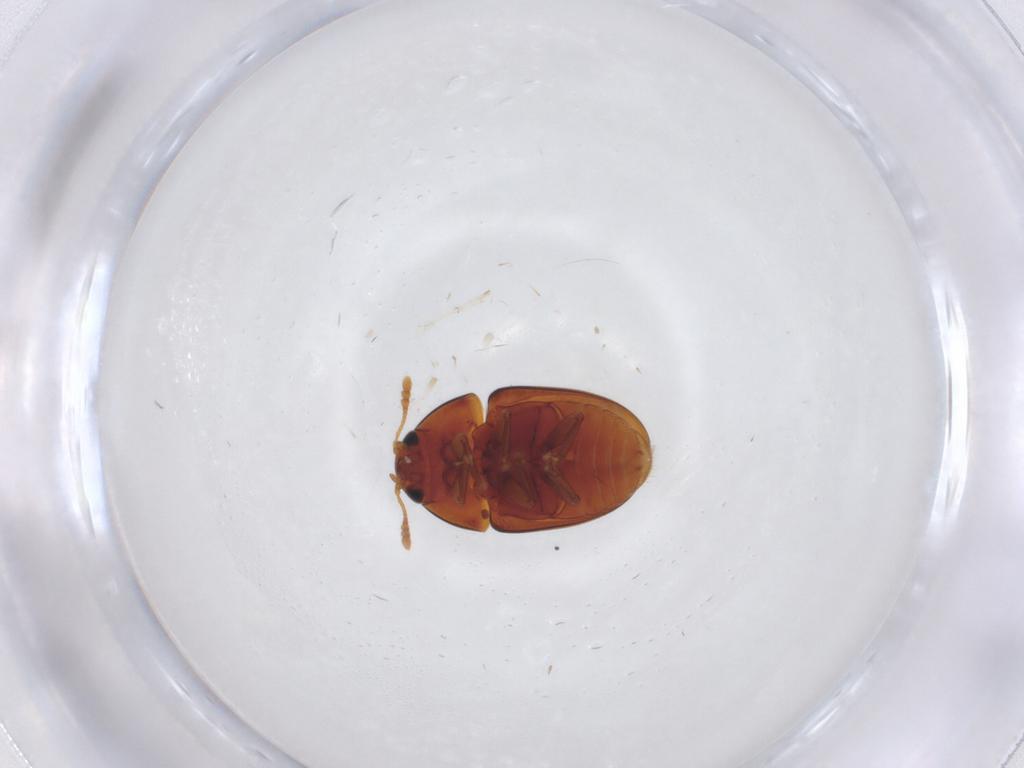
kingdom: Animalia
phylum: Arthropoda
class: Insecta
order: Coleoptera
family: Phalacridae
